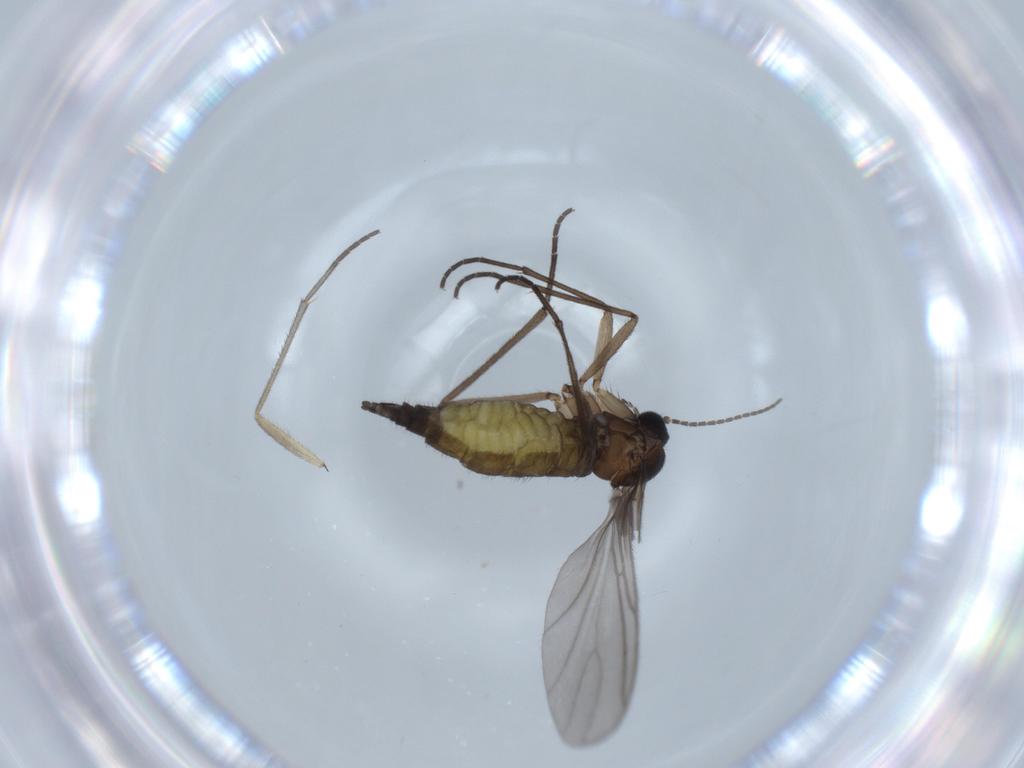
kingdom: Animalia
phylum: Arthropoda
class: Insecta
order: Diptera
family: Sciaridae
